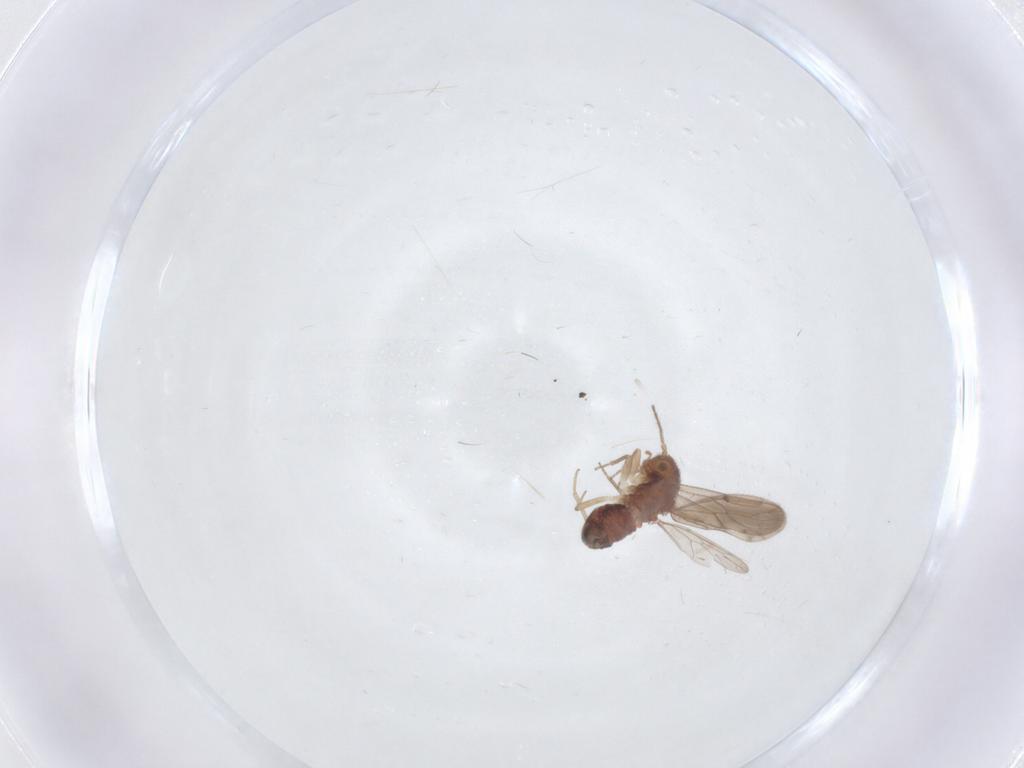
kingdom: Animalia
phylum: Arthropoda
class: Insecta
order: Psocodea
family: Ectopsocidae
